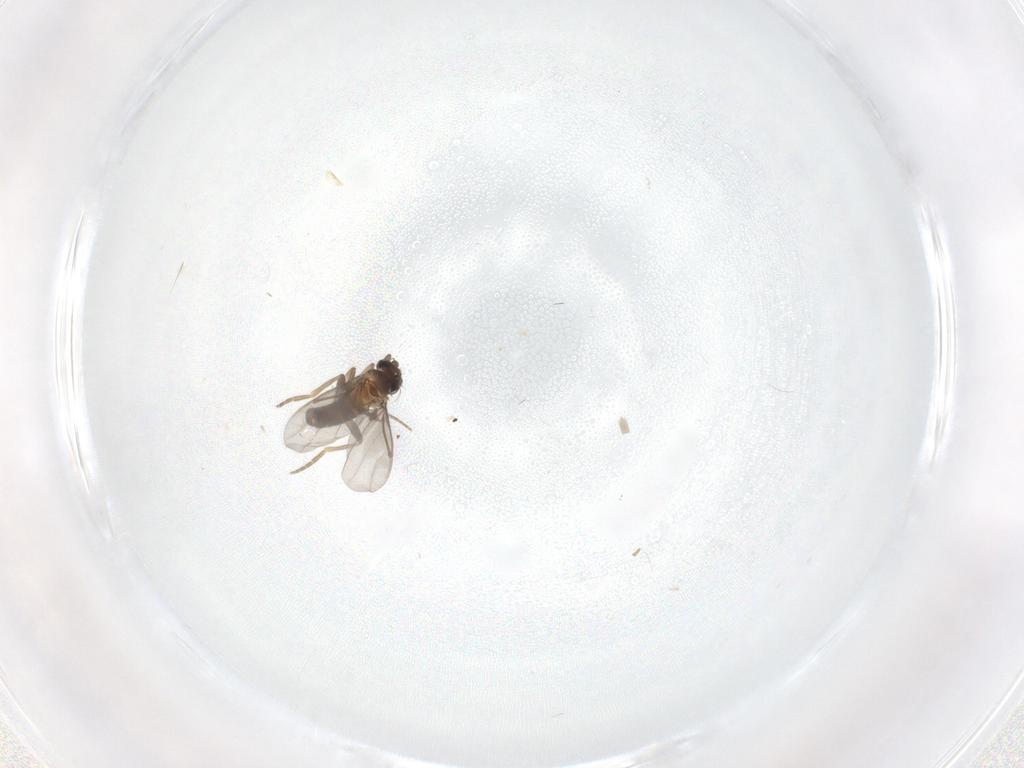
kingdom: Animalia
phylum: Arthropoda
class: Insecta
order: Diptera
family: Chironomidae
